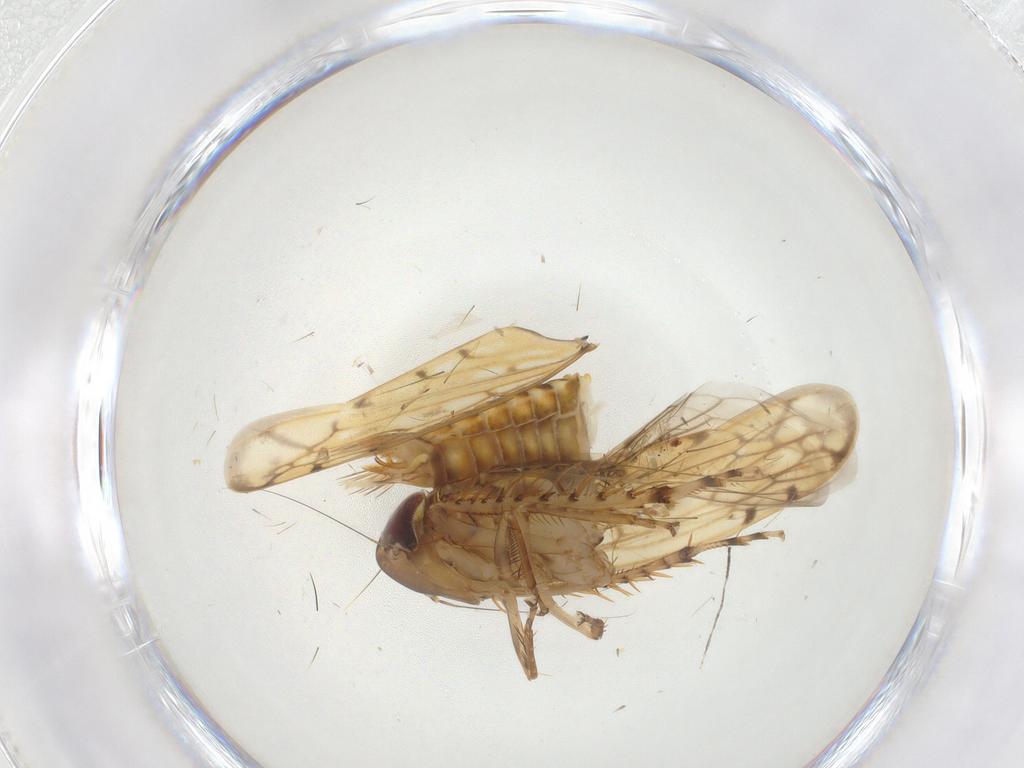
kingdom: Animalia
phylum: Arthropoda
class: Insecta
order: Hemiptera
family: Cicadellidae
